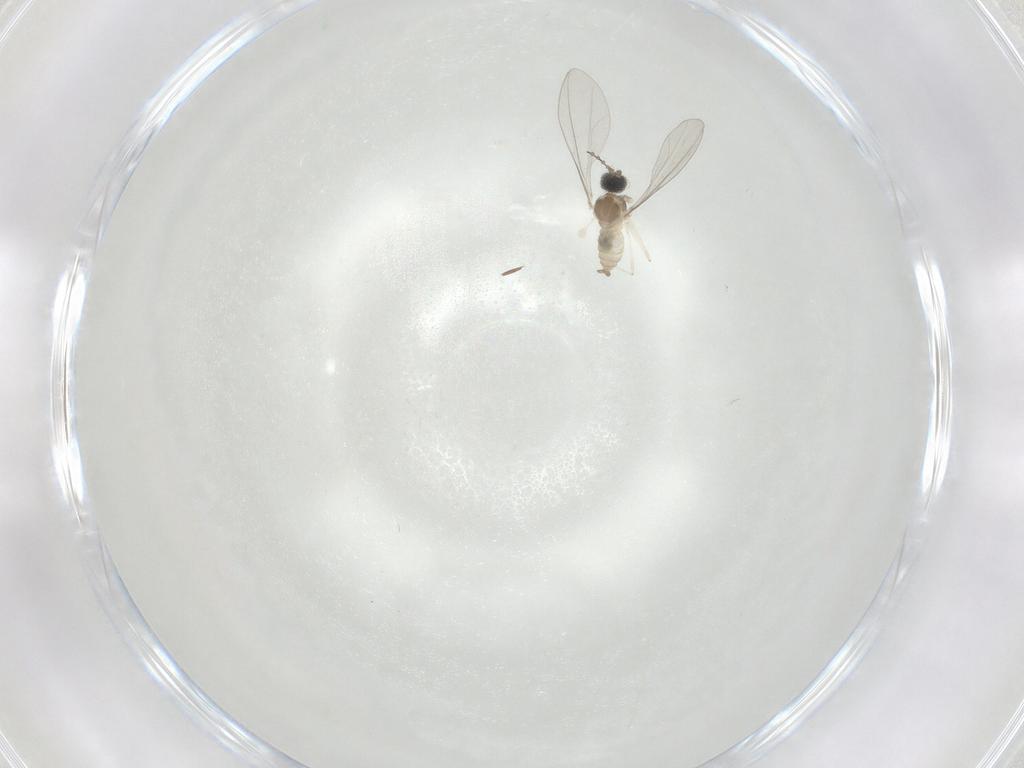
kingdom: Animalia
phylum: Arthropoda
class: Insecta
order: Diptera
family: Cecidomyiidae
